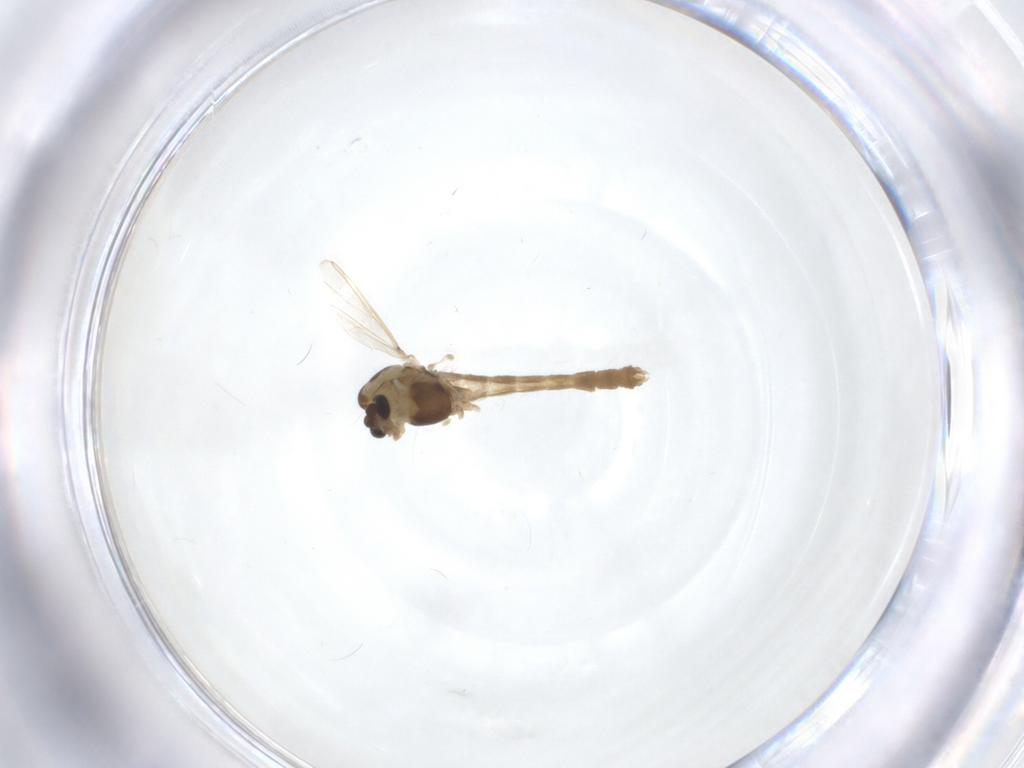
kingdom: Animalia
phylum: Arthropoda
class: Insecta
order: Diptera
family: Chironomidae
